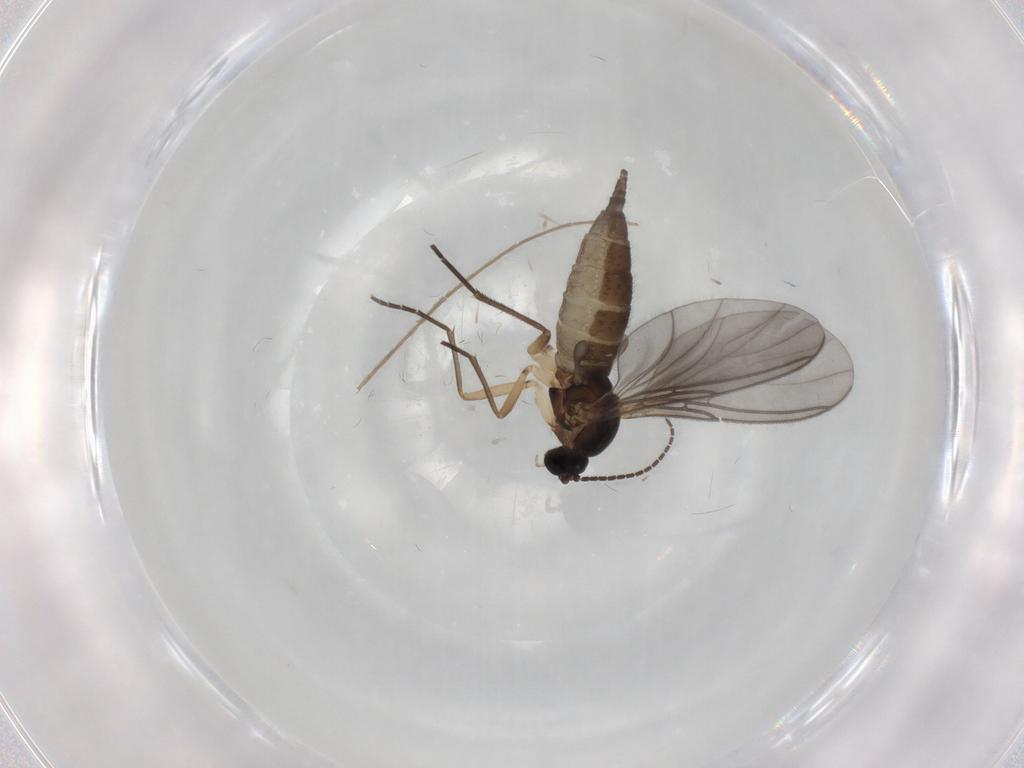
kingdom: Animalia
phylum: Arthropoda
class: Insecta
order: Diptera
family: Sciaridae
